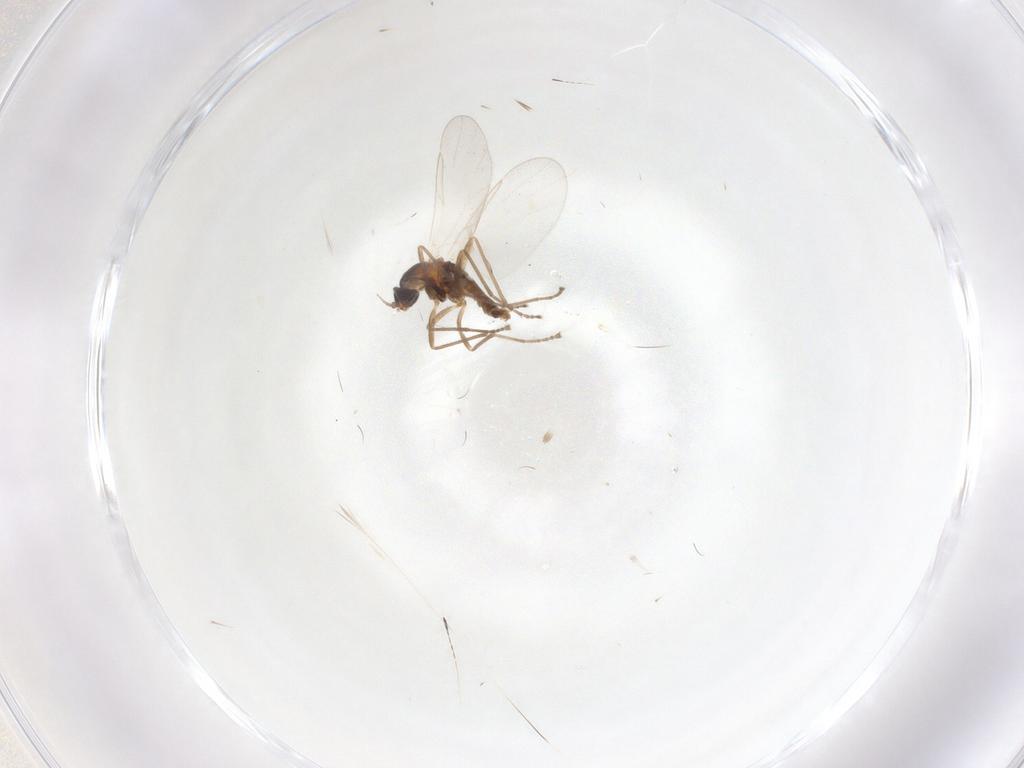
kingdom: Animalia
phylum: Arthropoda
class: Insecta
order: Diptera
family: Cecidomyiidae
